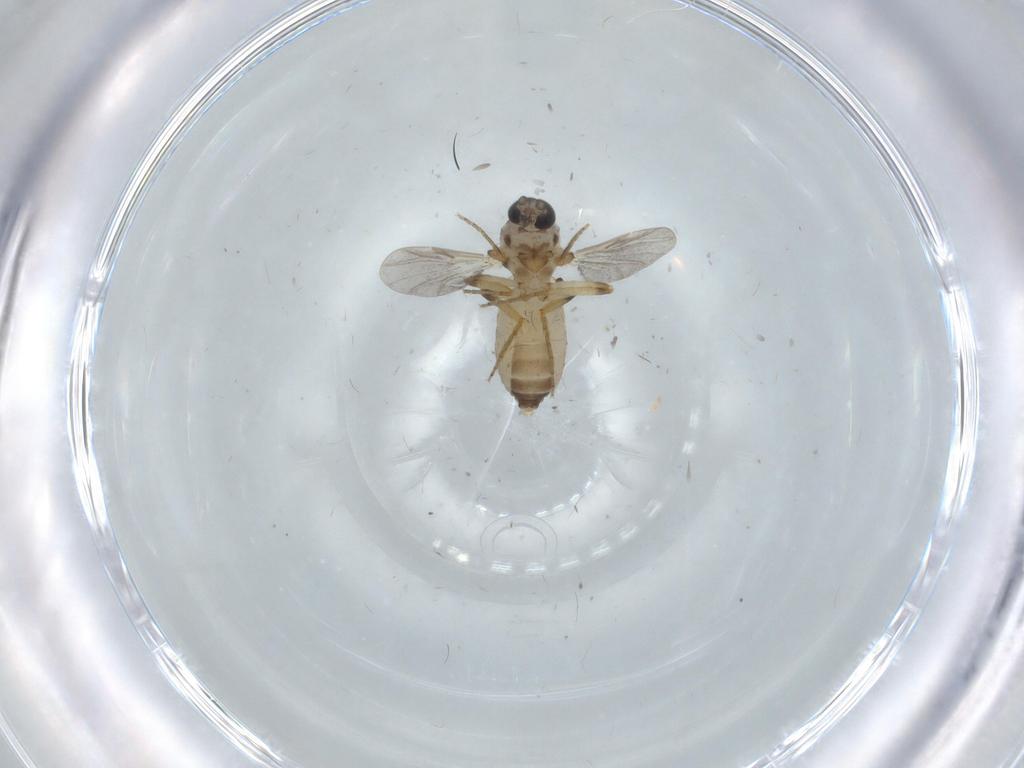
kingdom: Animalia
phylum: Arthropoda
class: Insecta
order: Diptera
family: Ceratopogonidae
